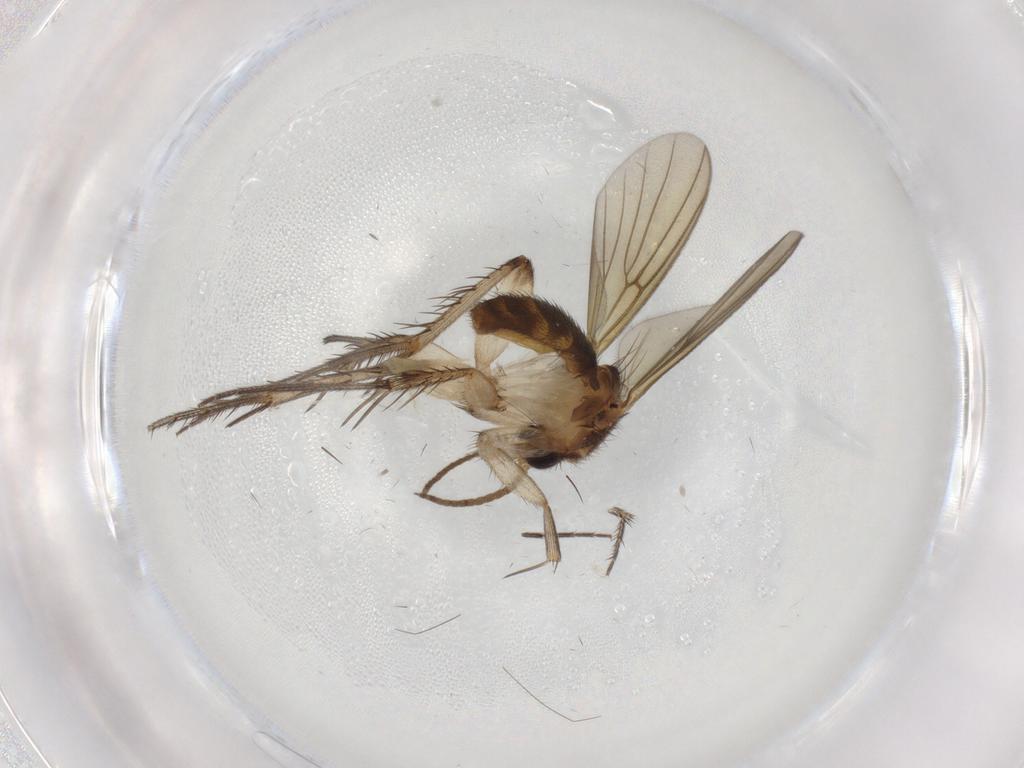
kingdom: Animalia
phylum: Arthropoda
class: Insecta
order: Diptera
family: Mycetophilidae
